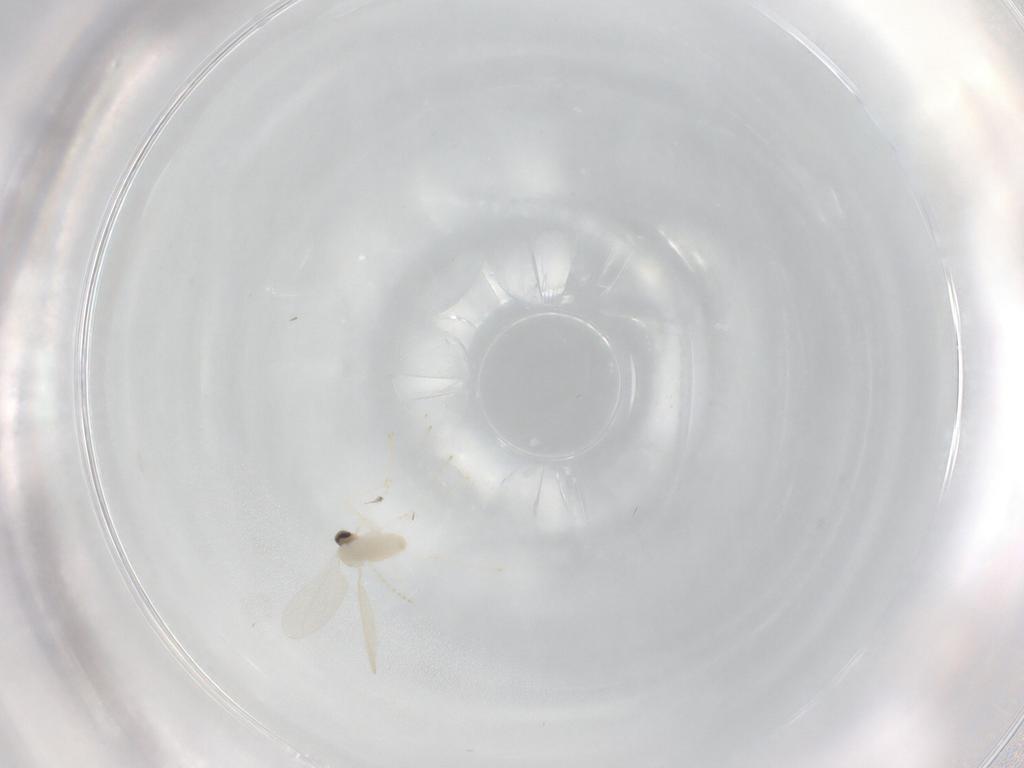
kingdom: Animalia
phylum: Arthropoda
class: Insecta
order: Diptera
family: Cecidomyiidae
